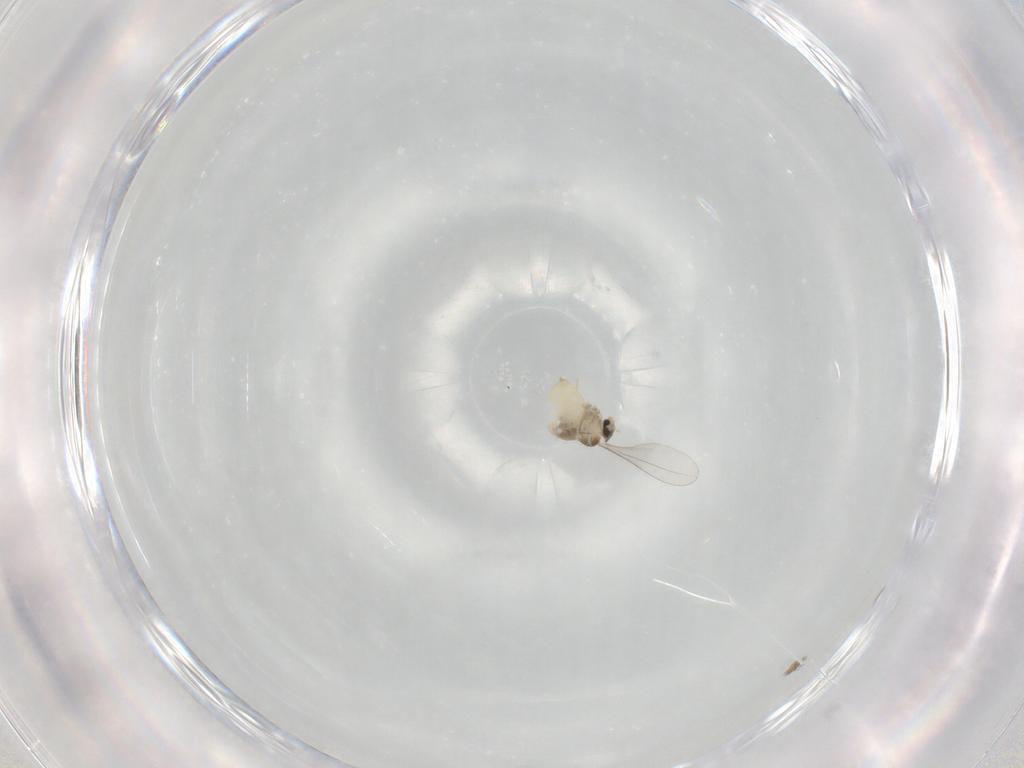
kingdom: Animalia
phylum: Arthropoda
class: Insecta
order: Diptera
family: Cecidomyiidae
